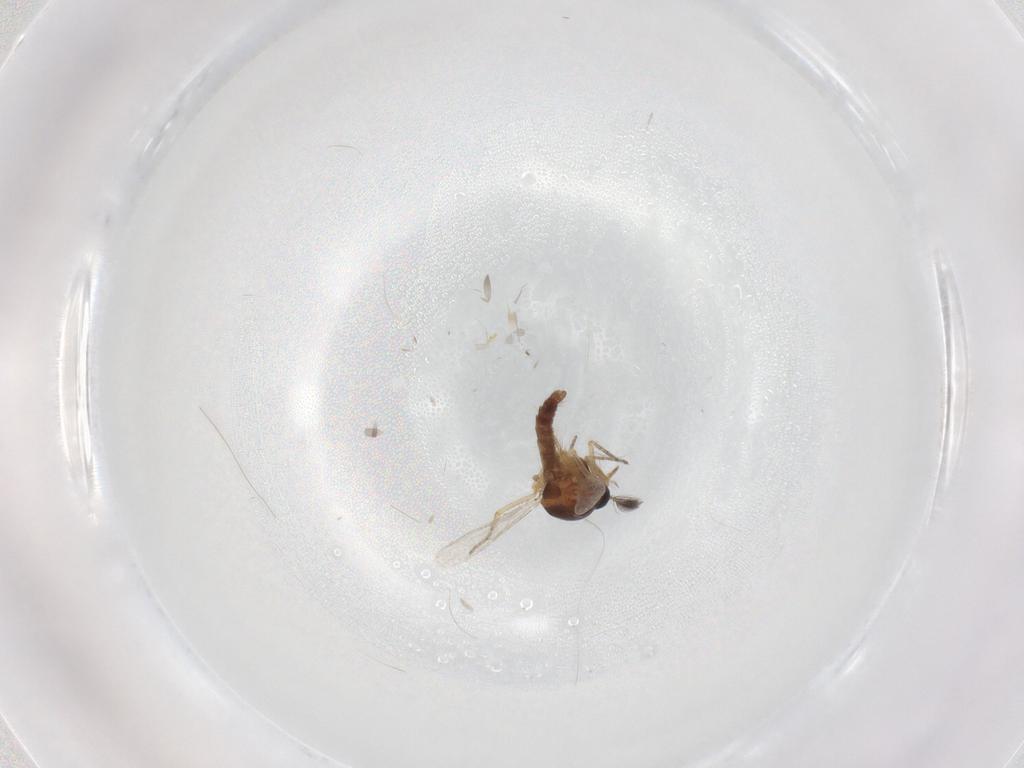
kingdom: Animalia
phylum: Arthropoda
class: Insecta
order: Diptera
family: Ceratopogonidae
